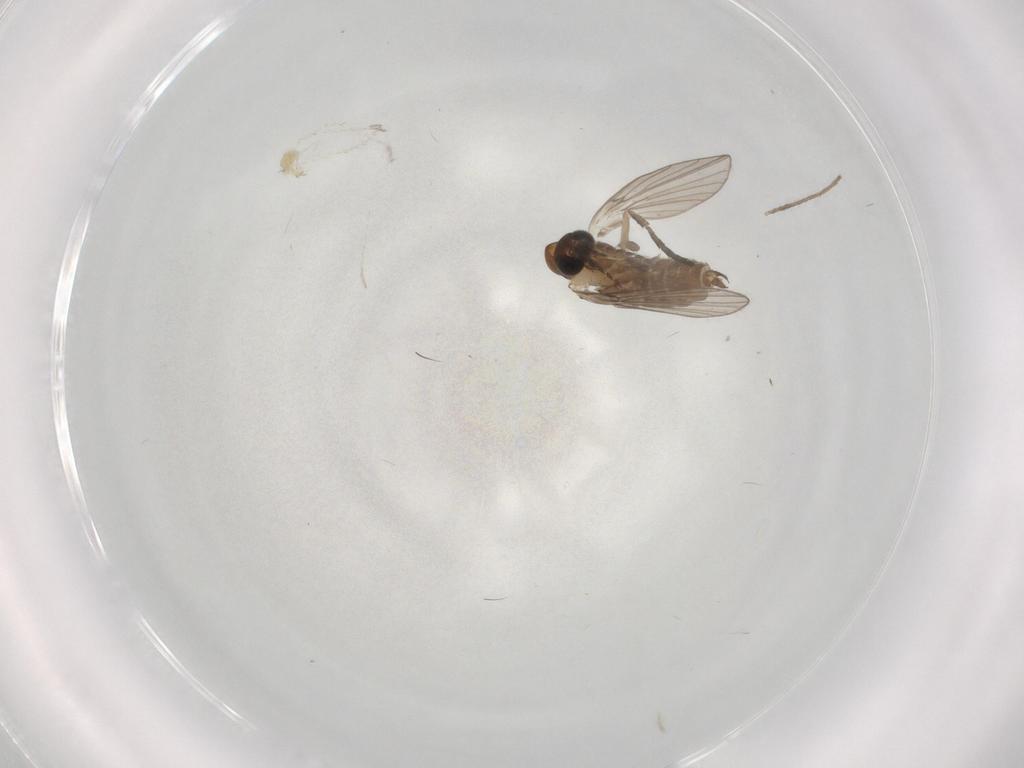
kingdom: Animalia
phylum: Arthropoda
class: Insecta
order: Diptera
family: Psychodidae
